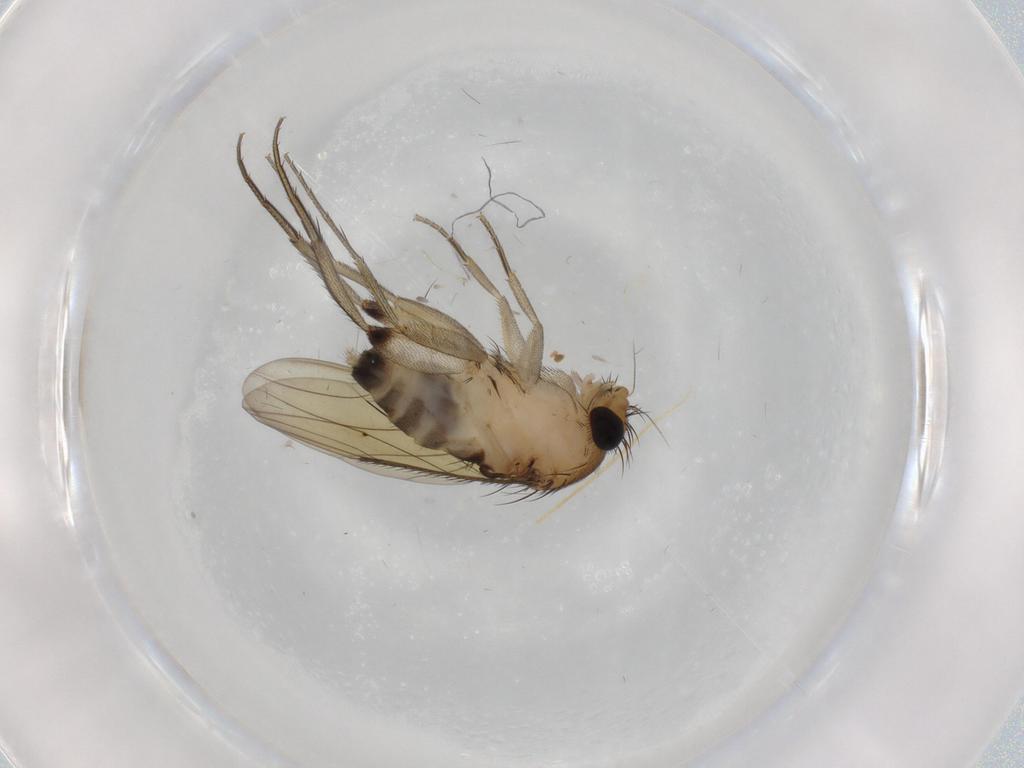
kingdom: Animalia
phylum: Arthropoda
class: Insecta
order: Diptera
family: Phoridae
